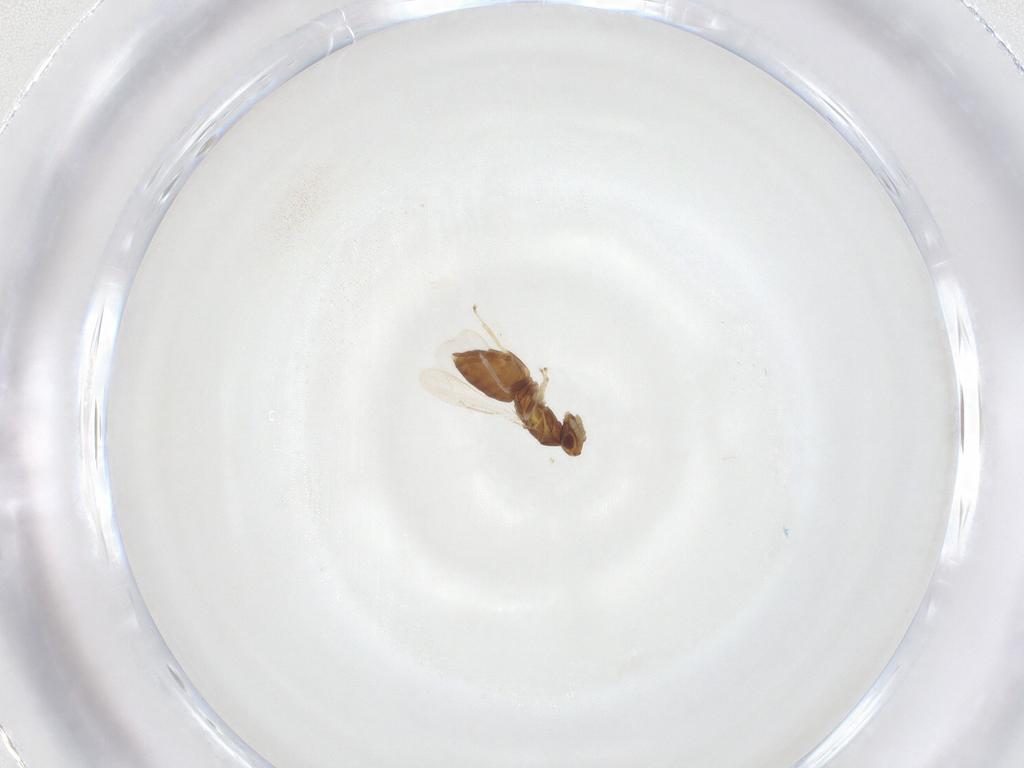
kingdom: Animalia
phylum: Arthropoda
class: Insecta
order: Hymenoptera
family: Eulophidae
